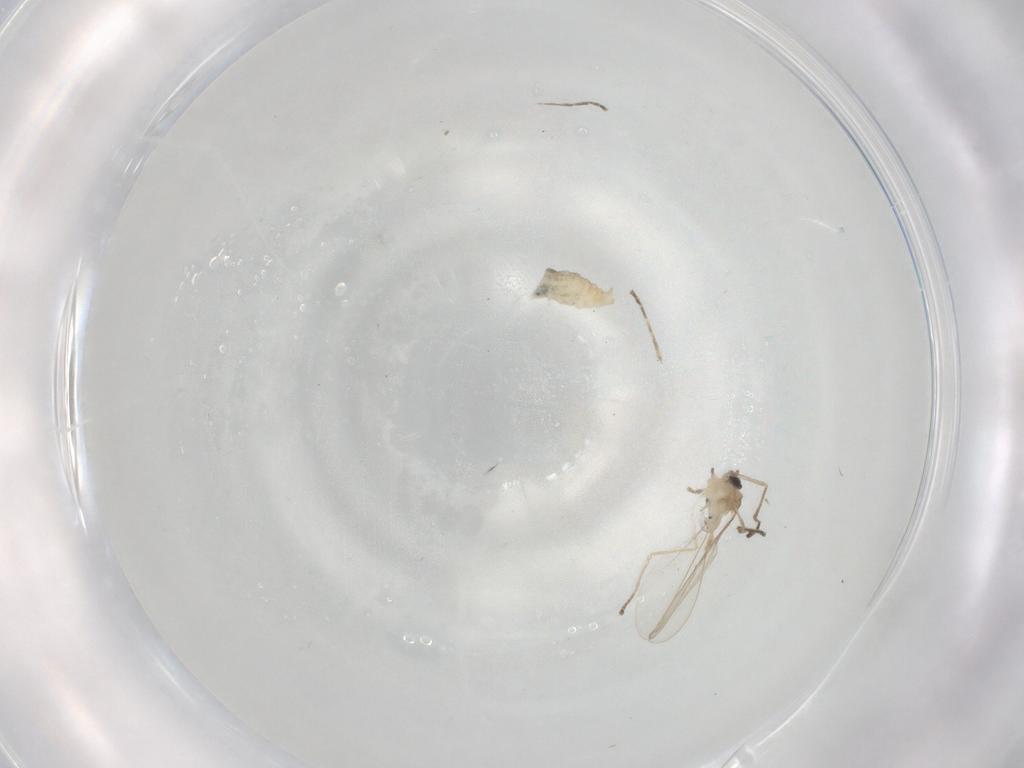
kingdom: Animalia
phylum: Arthropoda
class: Insecta
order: Diptera
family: Cecidomyiidae
